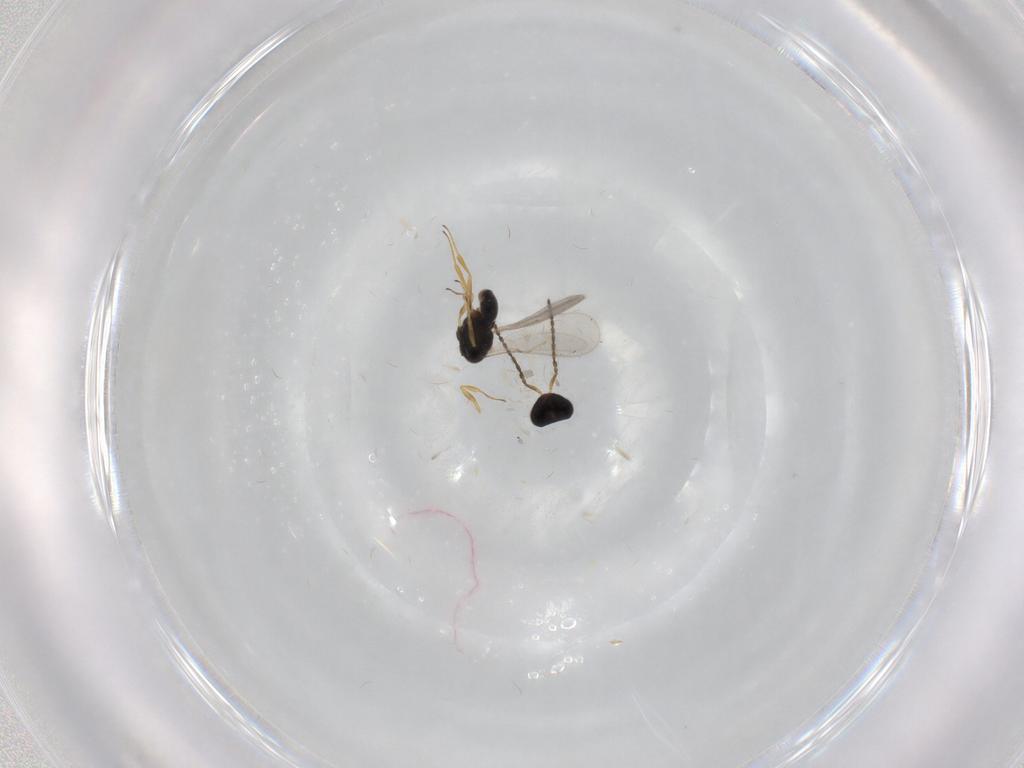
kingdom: Animalia
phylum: Arthropoda
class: Insecta
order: Hymenoptera
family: Scelionidae
